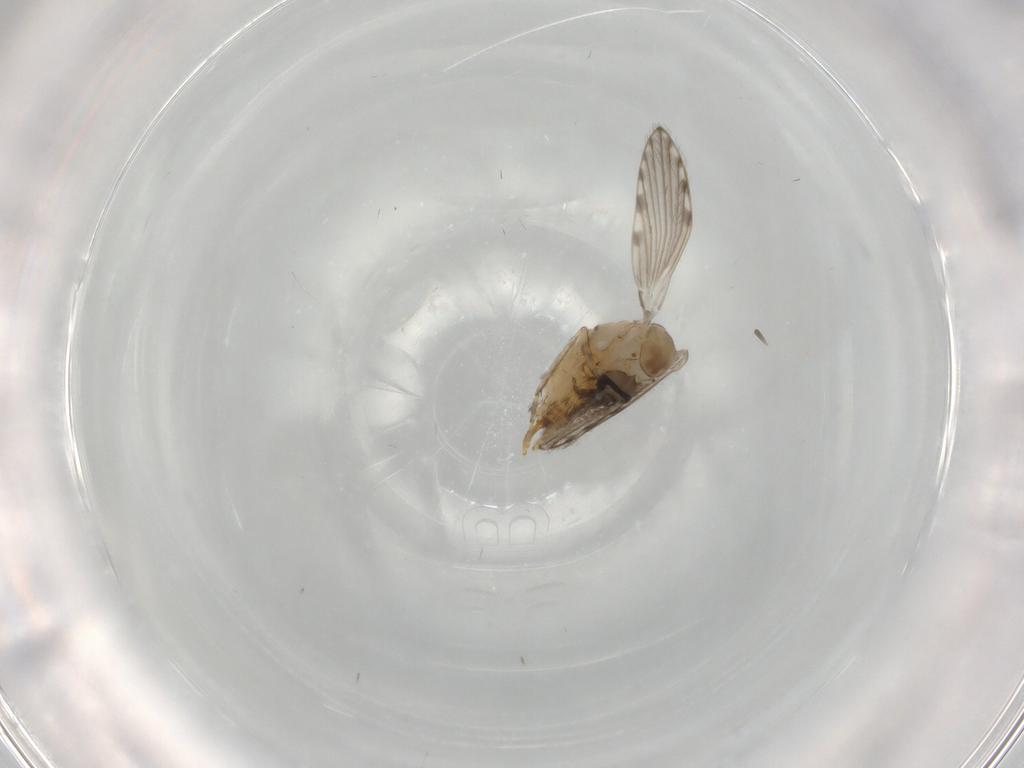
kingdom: Animalia
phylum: Arthropoda
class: Insecta
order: Diptera
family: Psychodidae
